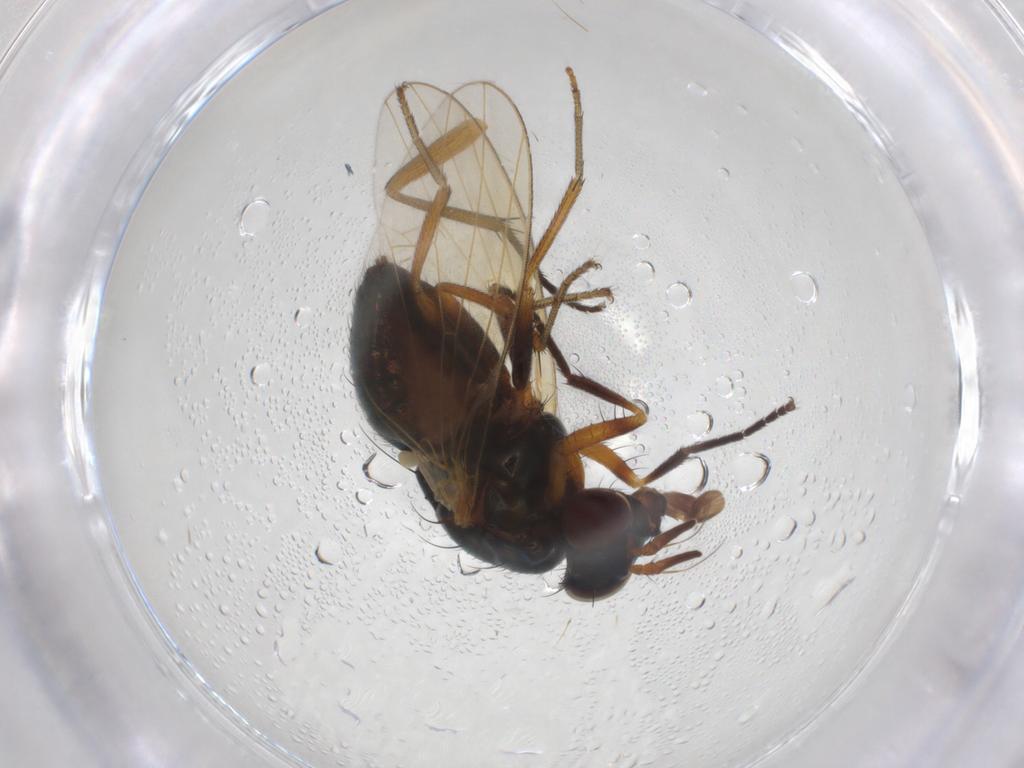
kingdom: Animalia
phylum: Arthropoda
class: Insecta
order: Diptera
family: Lauxaniidae
